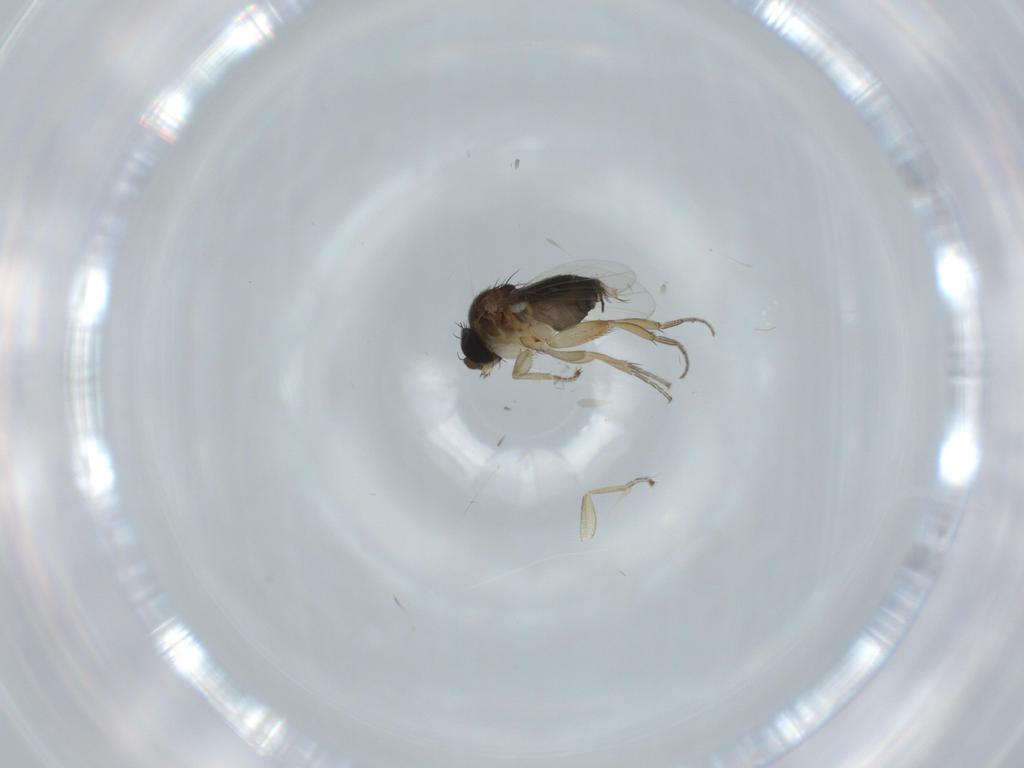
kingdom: Animalia
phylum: Arthropoda
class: Insecta
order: Diptera
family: Phoridae
